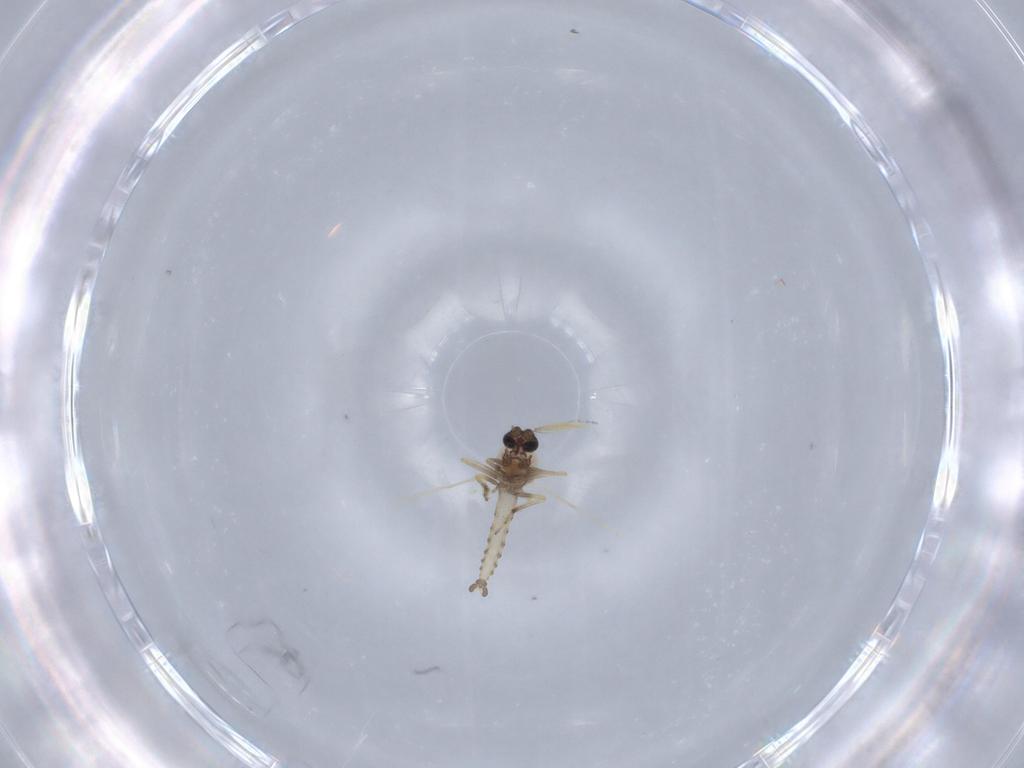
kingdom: Animalia
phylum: Arthropoda
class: Insecta
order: Diptera
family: Ceratopogonidae
